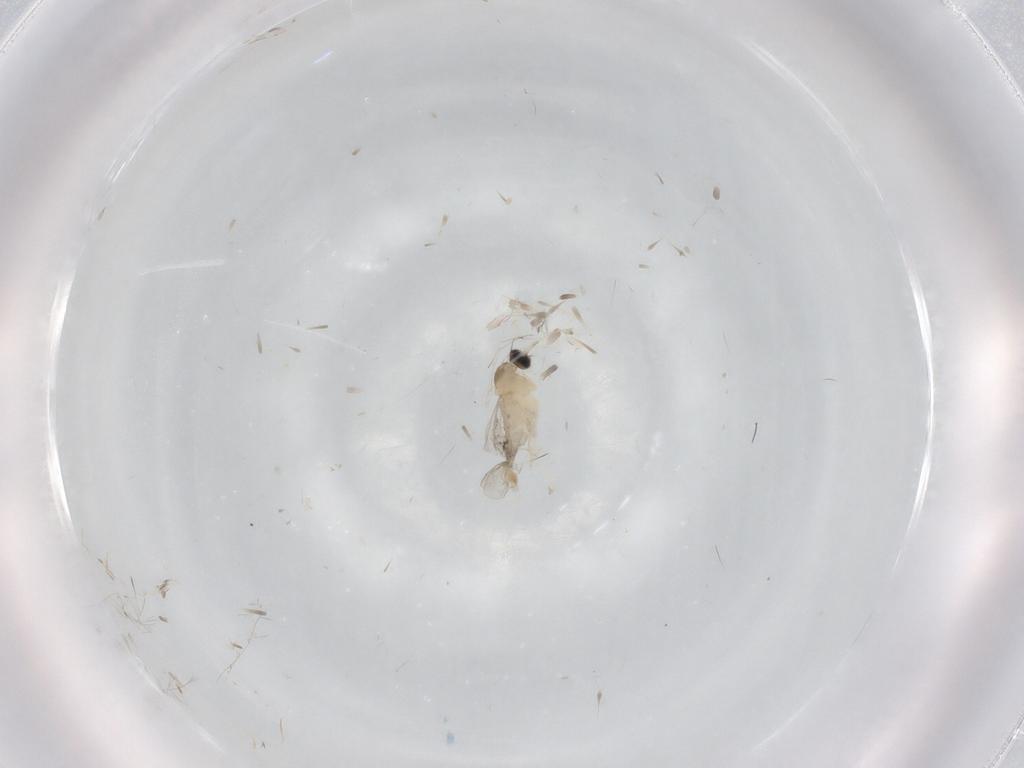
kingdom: Animalia
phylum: Arthropoda
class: Insecta
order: Diptera
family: Cecidomyiidae
